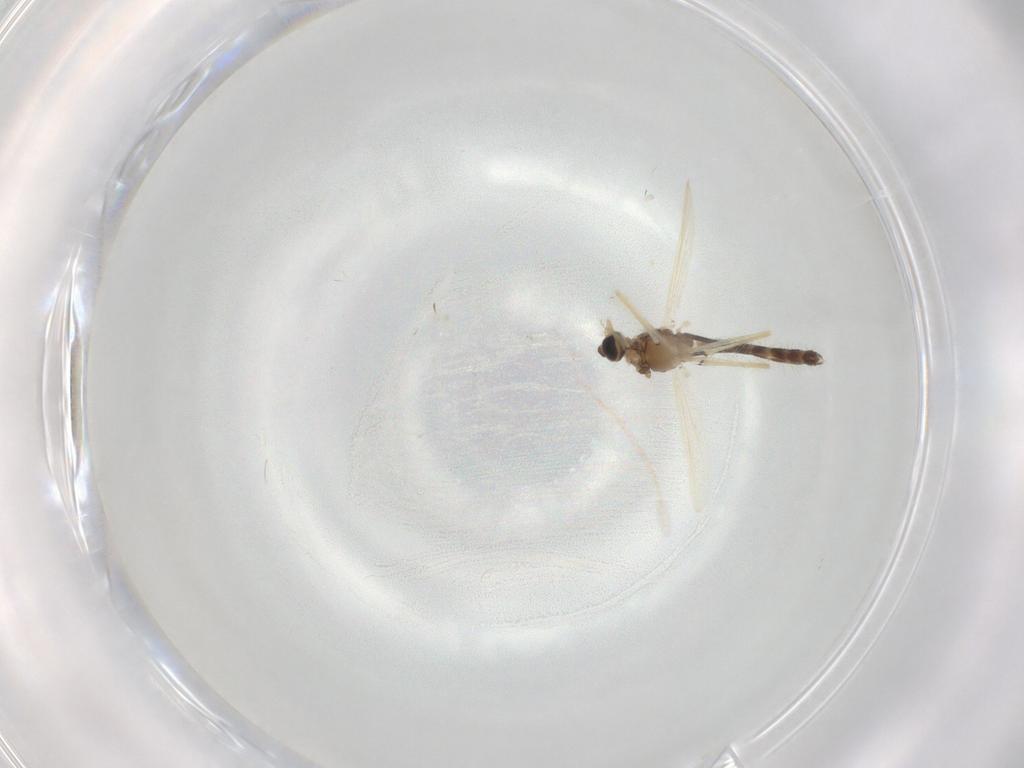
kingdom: Animalia
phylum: Arthropoda
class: Insecta
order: Diptera
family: Chironomidae
